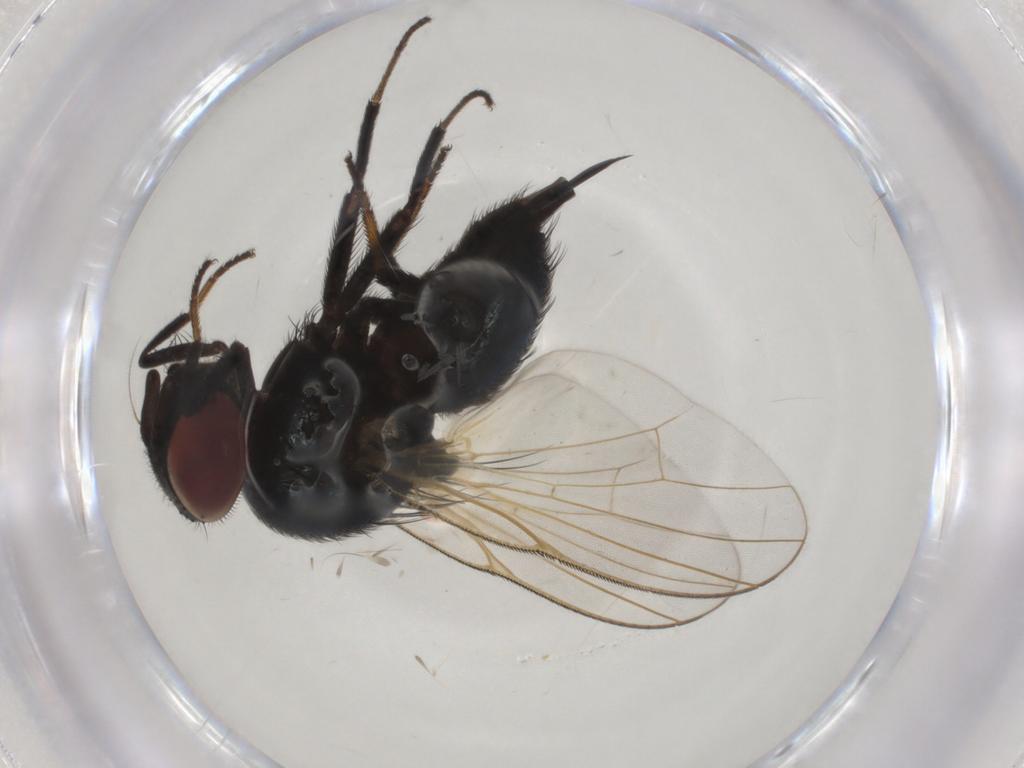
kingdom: Animalia
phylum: Arthropoda
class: Insecta
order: Diptera
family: Lonchaeidae
